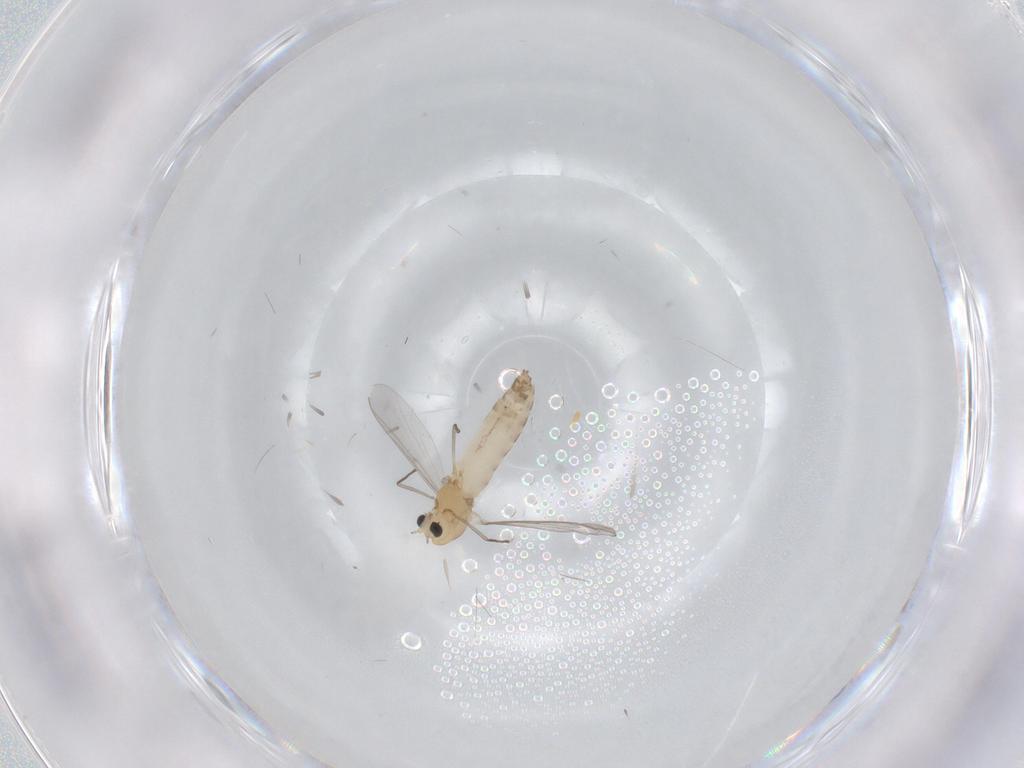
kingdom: Animalia
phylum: Arthropoda
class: Insecta
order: Diptera
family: Chironomidae
